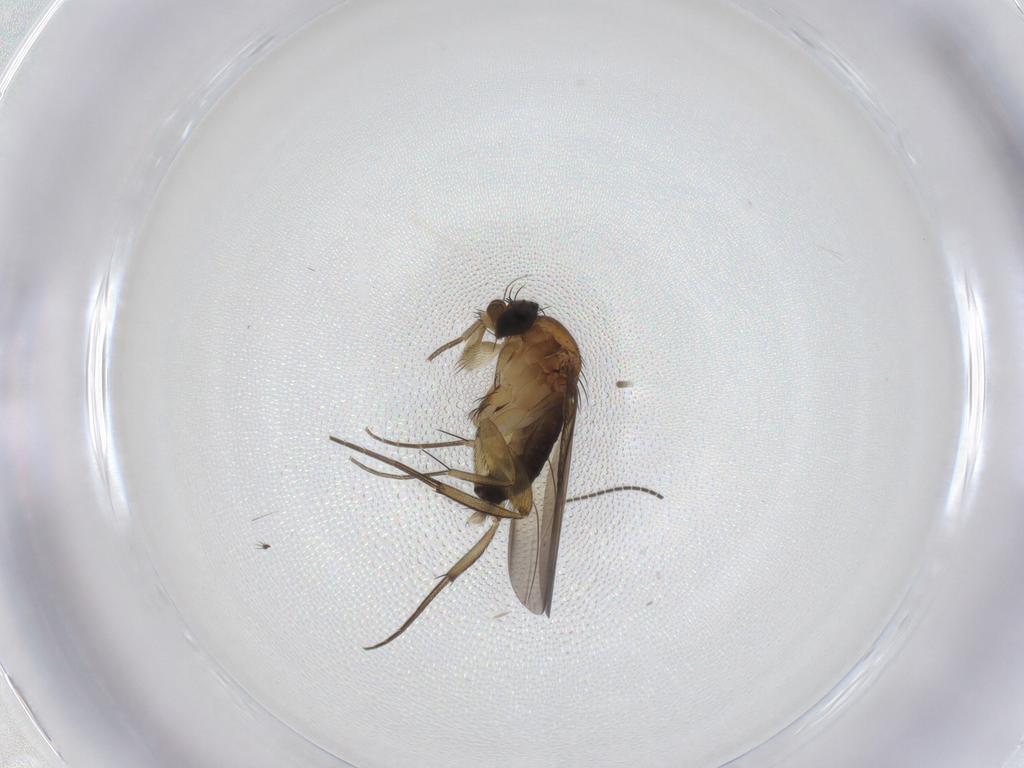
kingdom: Animalia
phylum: Arthropoda
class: Insecta
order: Diptera
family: Phoridae
